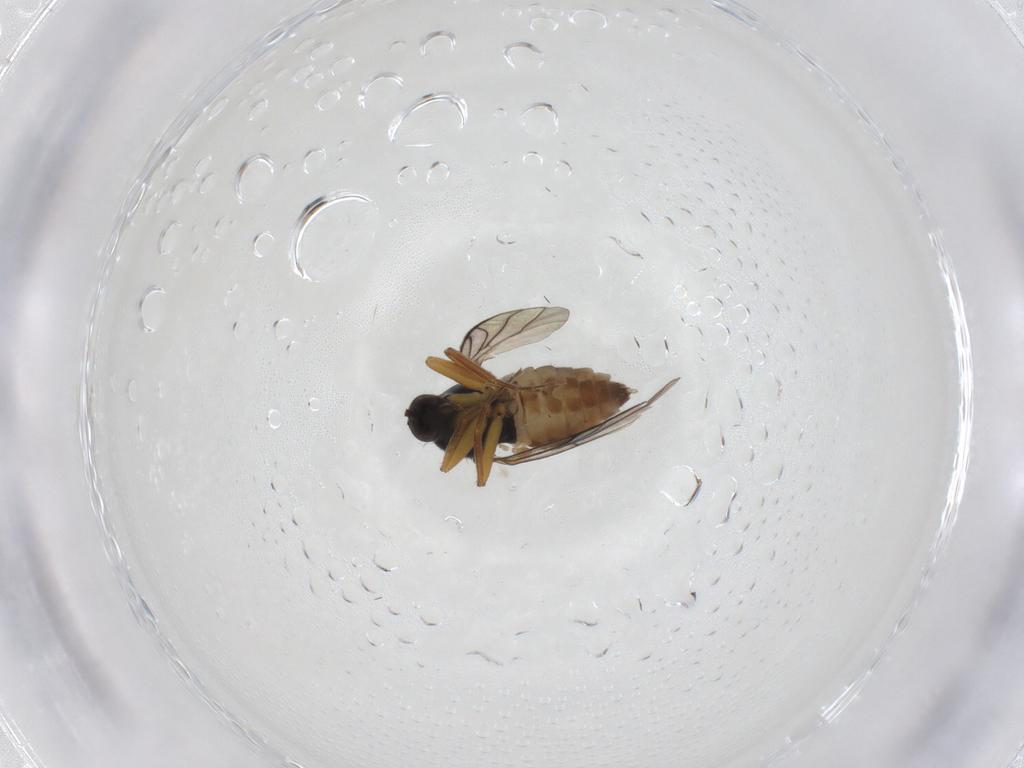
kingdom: Animalia
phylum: Arthropoda
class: Insecta
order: Diptera
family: Hybotidae
